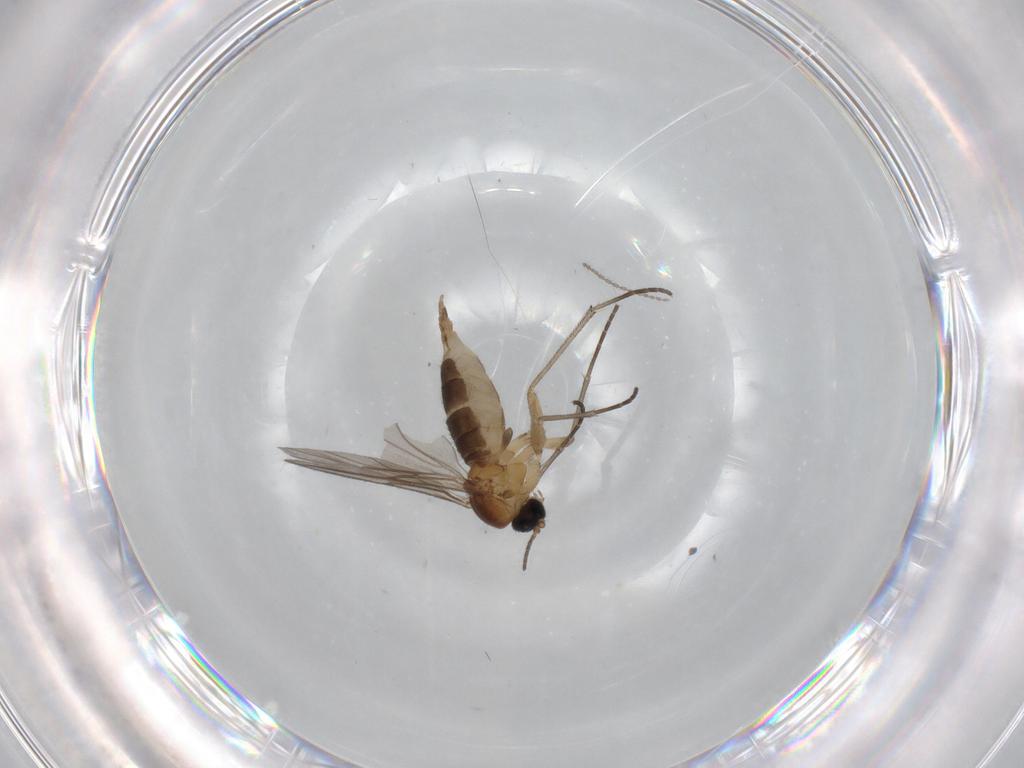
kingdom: Animalia
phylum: Arthropoda
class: Insecta
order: Diptera
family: Sciaridae
